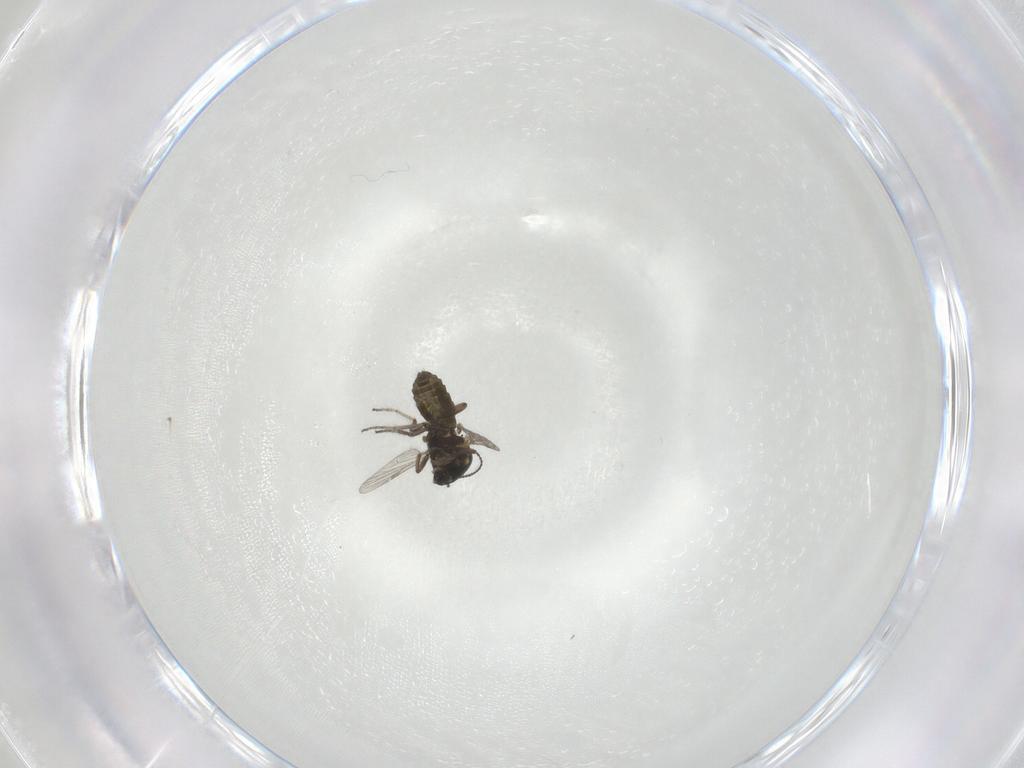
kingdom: Animalia
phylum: Arthropoda
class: Insecta
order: Diptera
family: Ceratopogonidae
